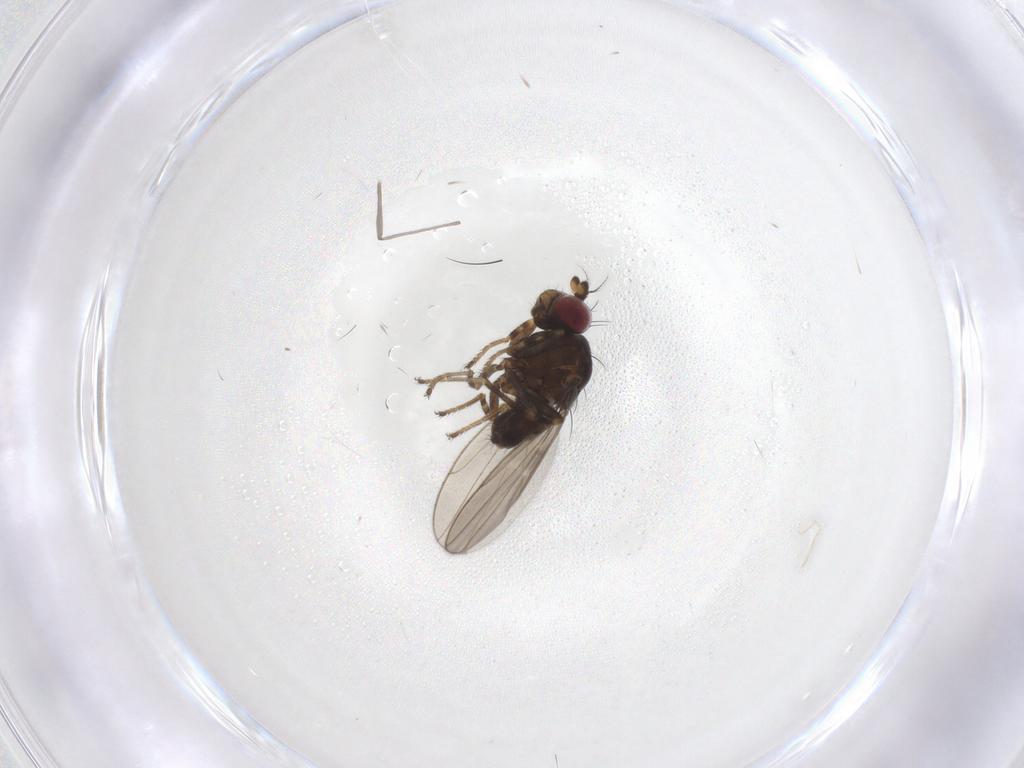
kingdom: Animalia
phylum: Arthropoda
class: Insecta
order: Diptera
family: Ephydridae
